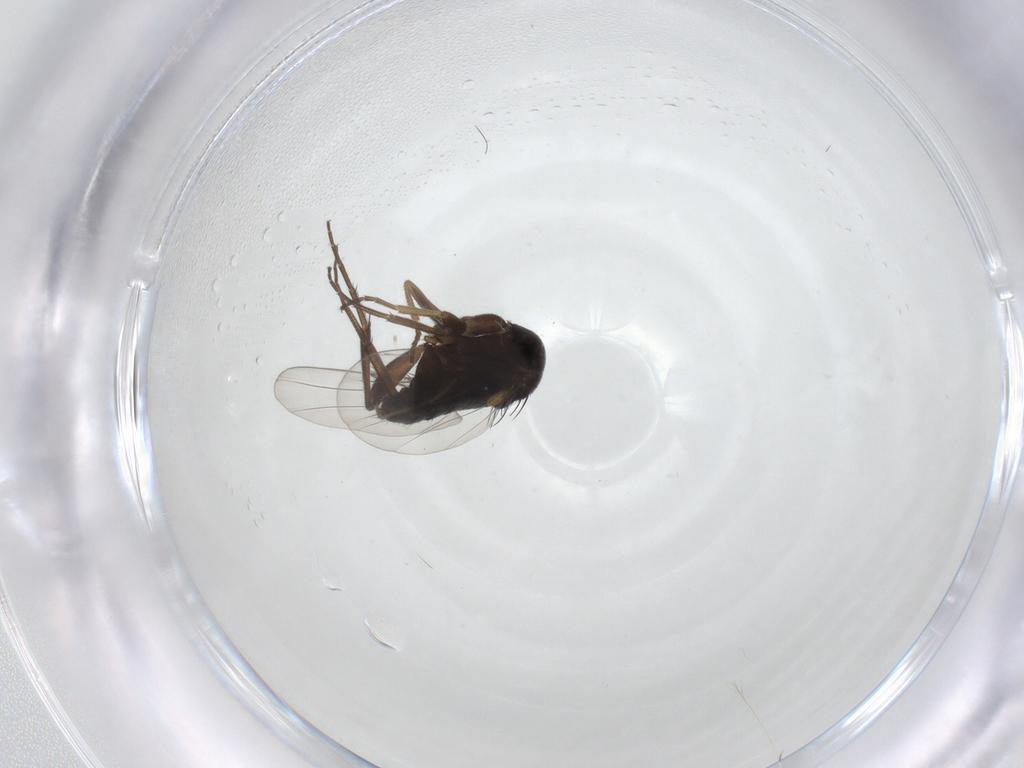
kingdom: Animalia
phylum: Arthropoda
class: Insecta
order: Diptera
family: Phoridae
